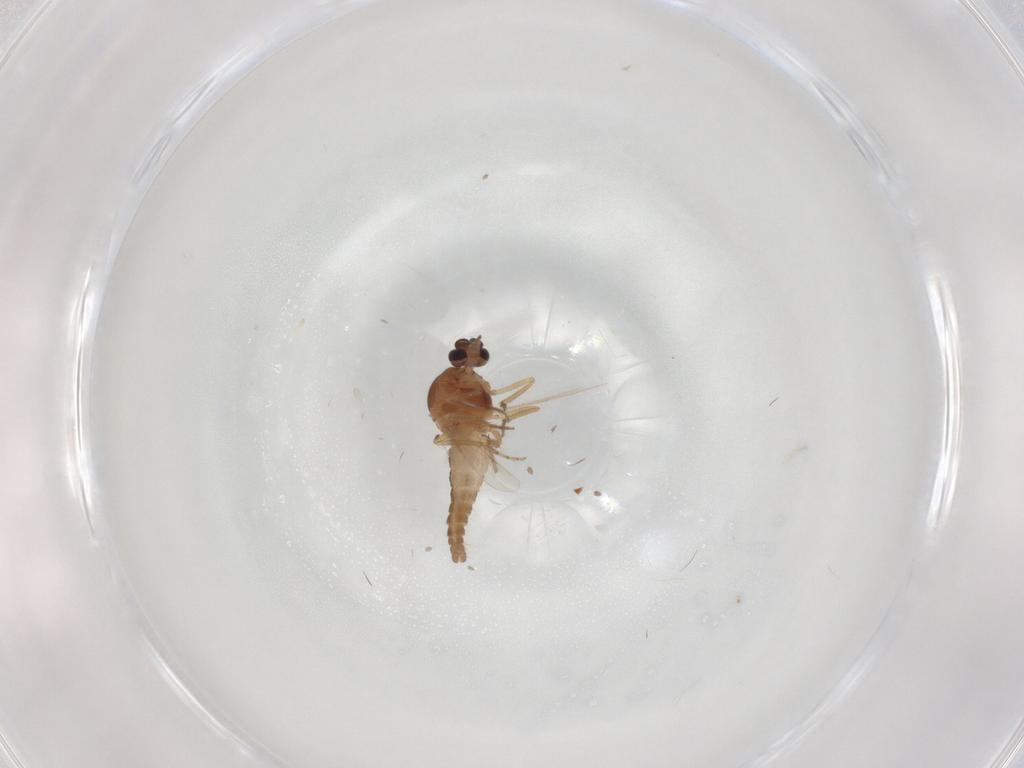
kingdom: Animalia
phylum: Arthropoda
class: Insecta
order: Diptera
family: Ceratopogonidae
